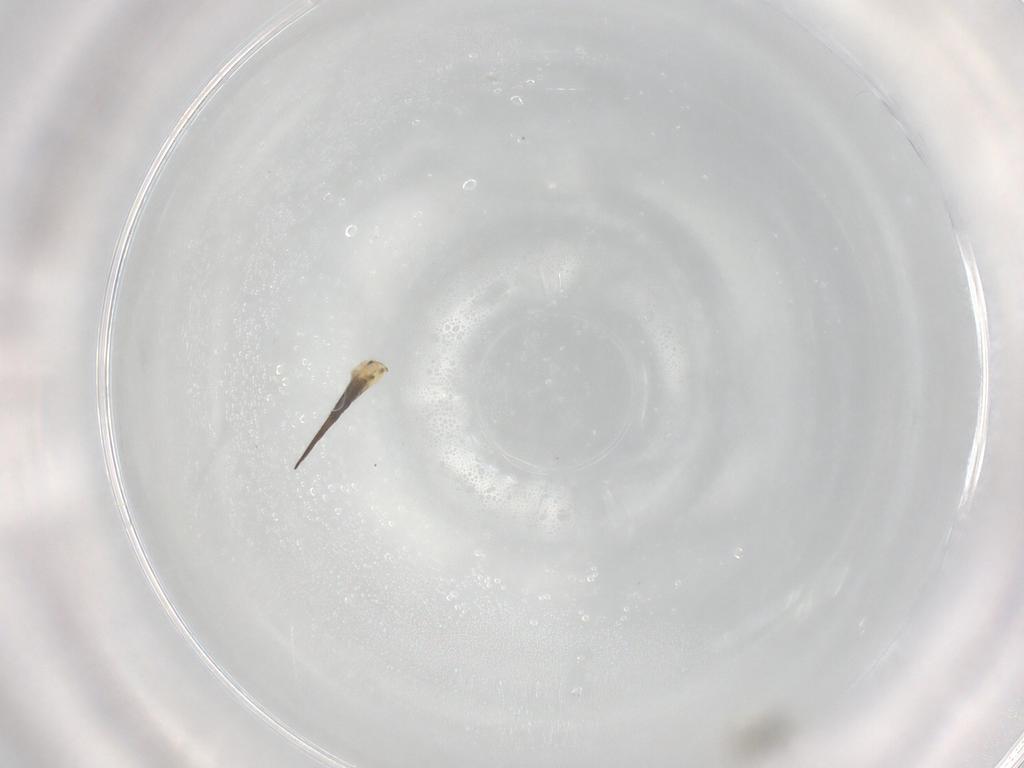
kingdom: Animalia
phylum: Arthropoda
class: Insecta
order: Hymenoptera
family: Eulophidae
